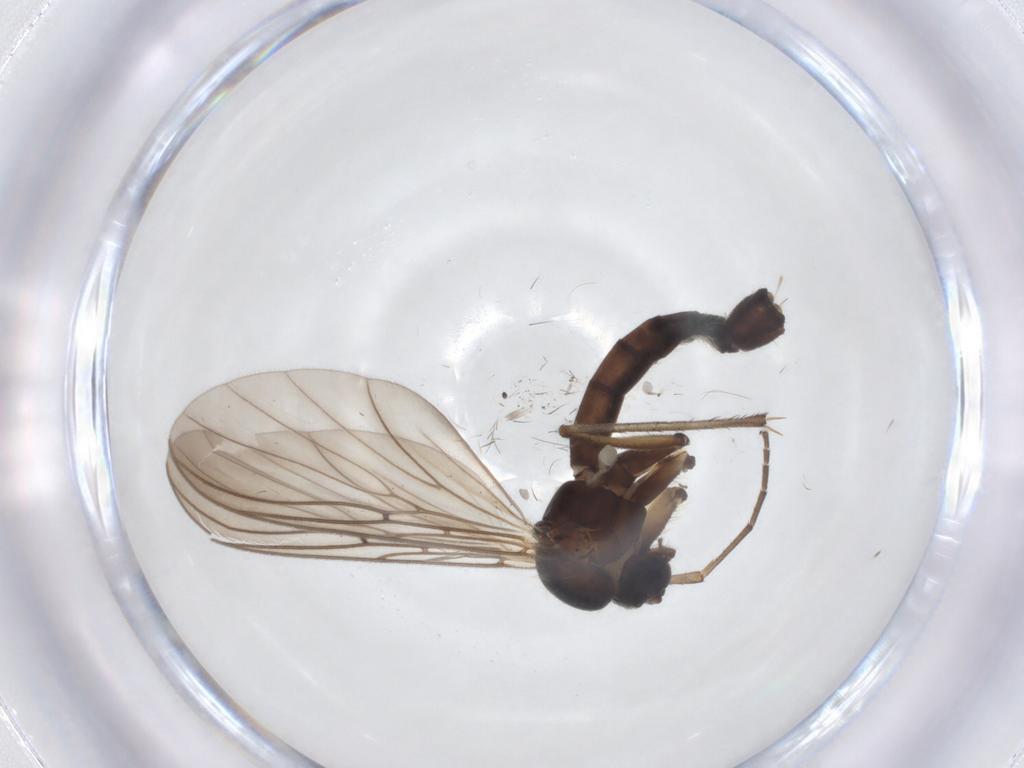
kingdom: Animalia
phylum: Arthropoda
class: Insecta
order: Diptera
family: Mycetophilidae
